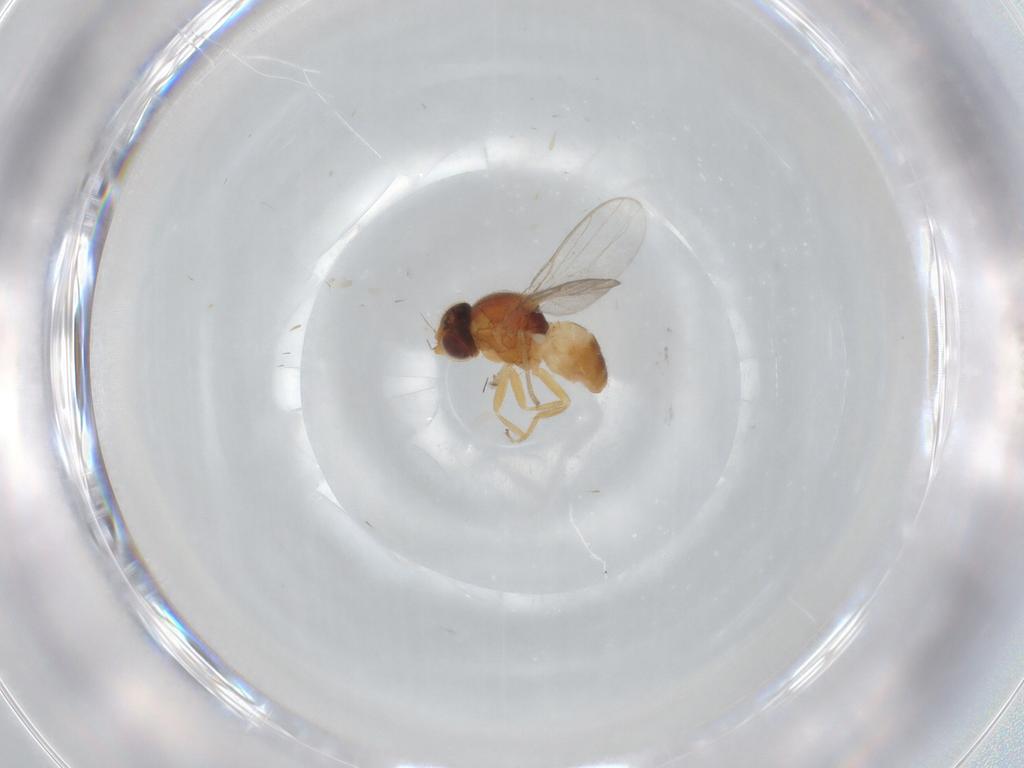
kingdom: Animalia
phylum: Arthropoda
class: Insecta
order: Diptera
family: Chloropidae
